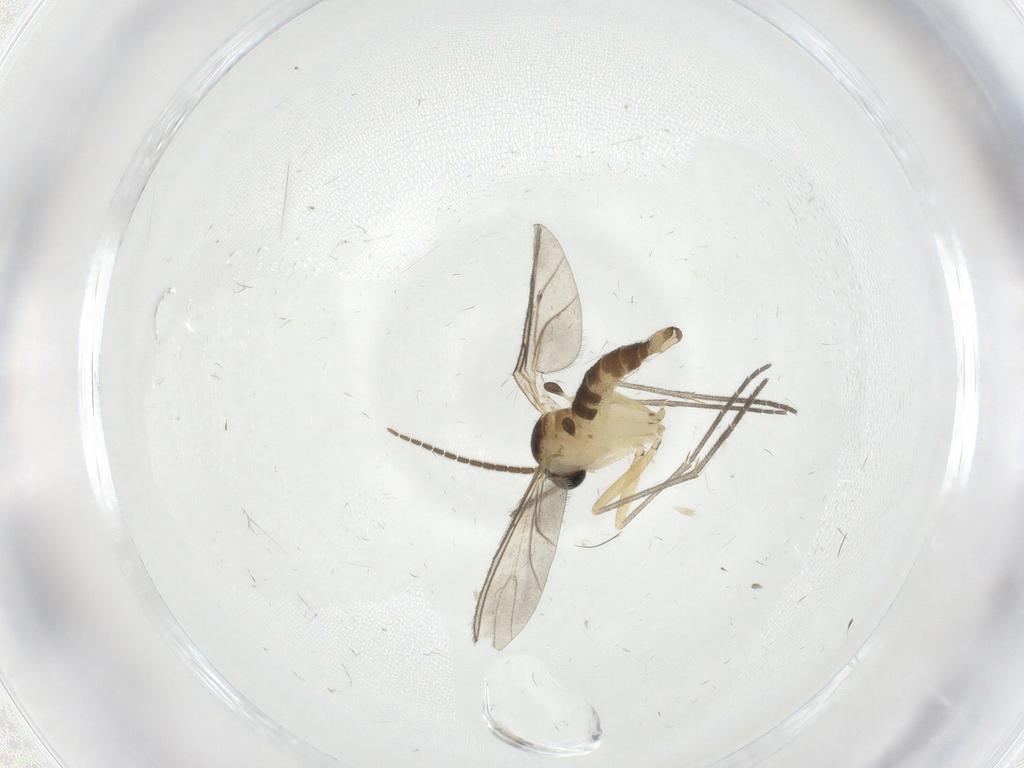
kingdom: Animalia
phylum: Arthropoda
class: Insecta
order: Diptera
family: Sciaridae
